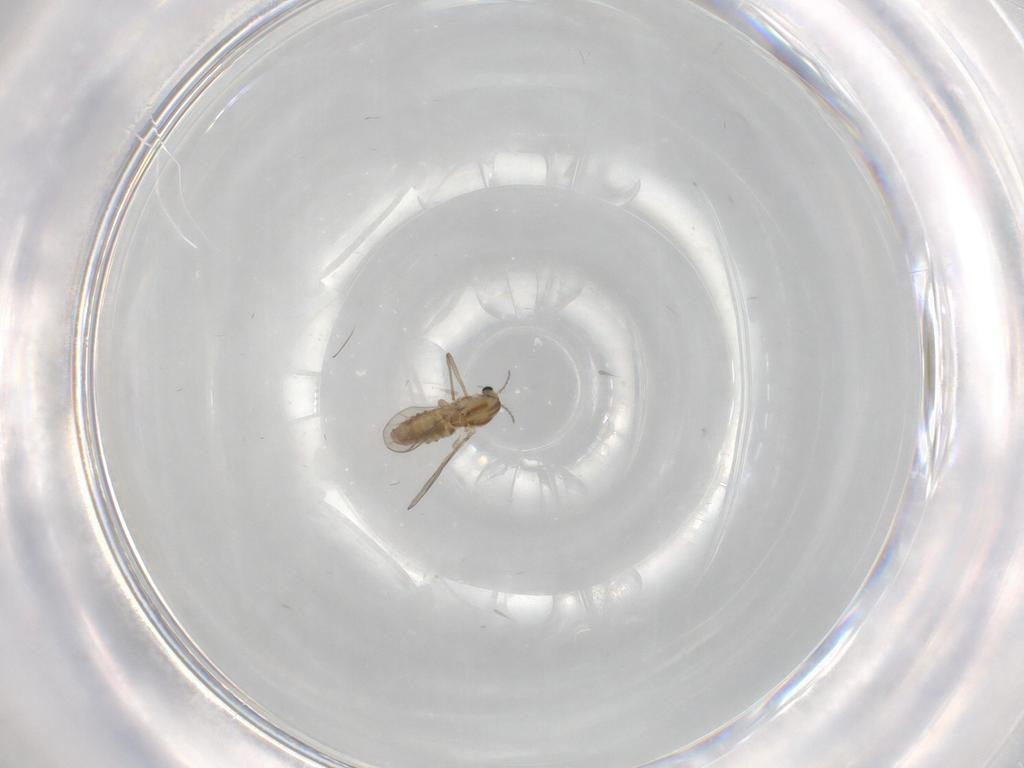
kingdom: Animalia
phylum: Arthropoda
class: Insecta
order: Diptera
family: Chironomidae
